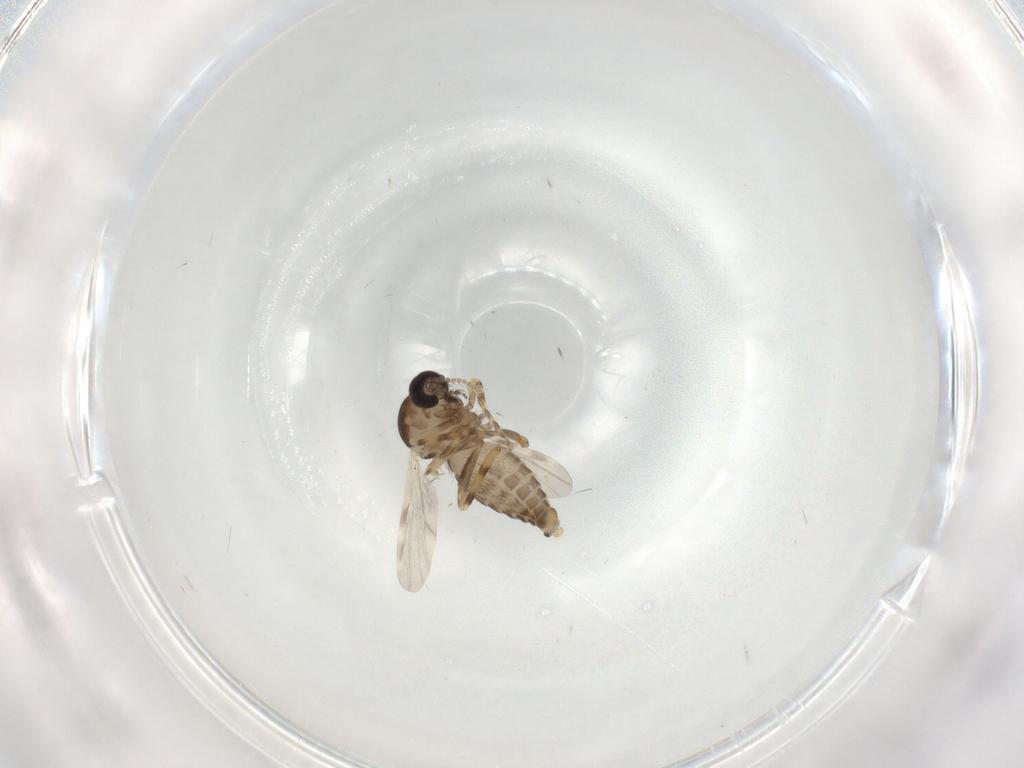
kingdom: Animalia
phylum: Arthropoda
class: Insecta
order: Diptera
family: Ceratopogonidae
